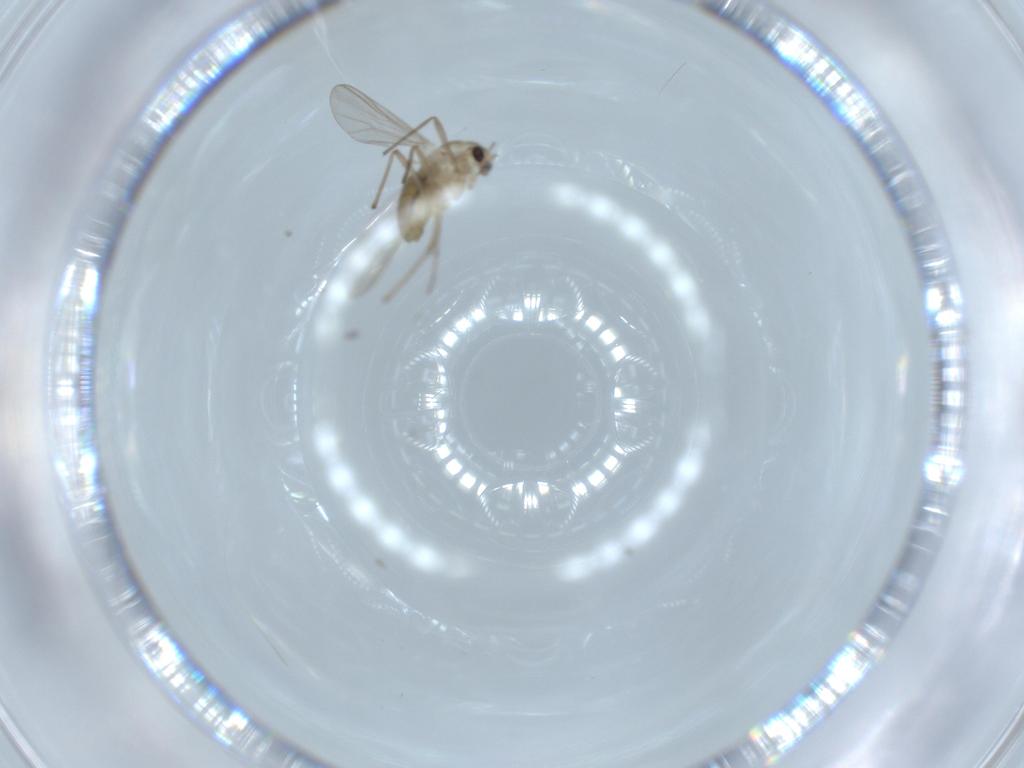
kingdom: Animalia
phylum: Arthropoda
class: Insecta
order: Diptera
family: Chironomidae
